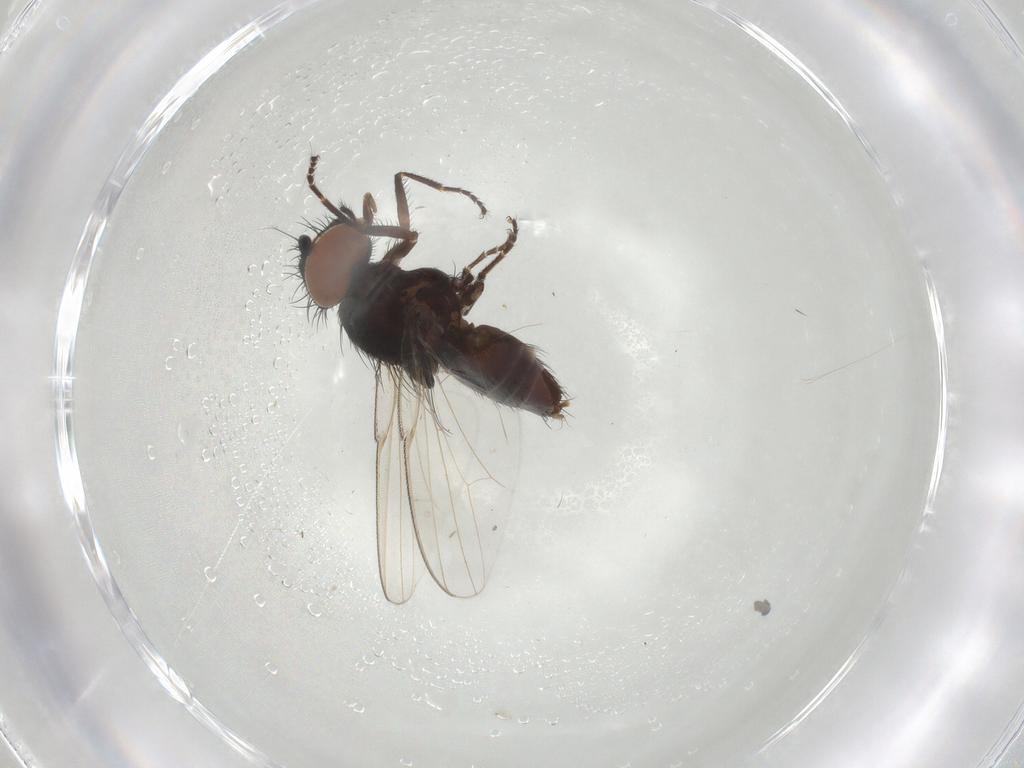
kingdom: Animalia
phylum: Arthropoda
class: Insecta
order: Diptera
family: Milichiidae
